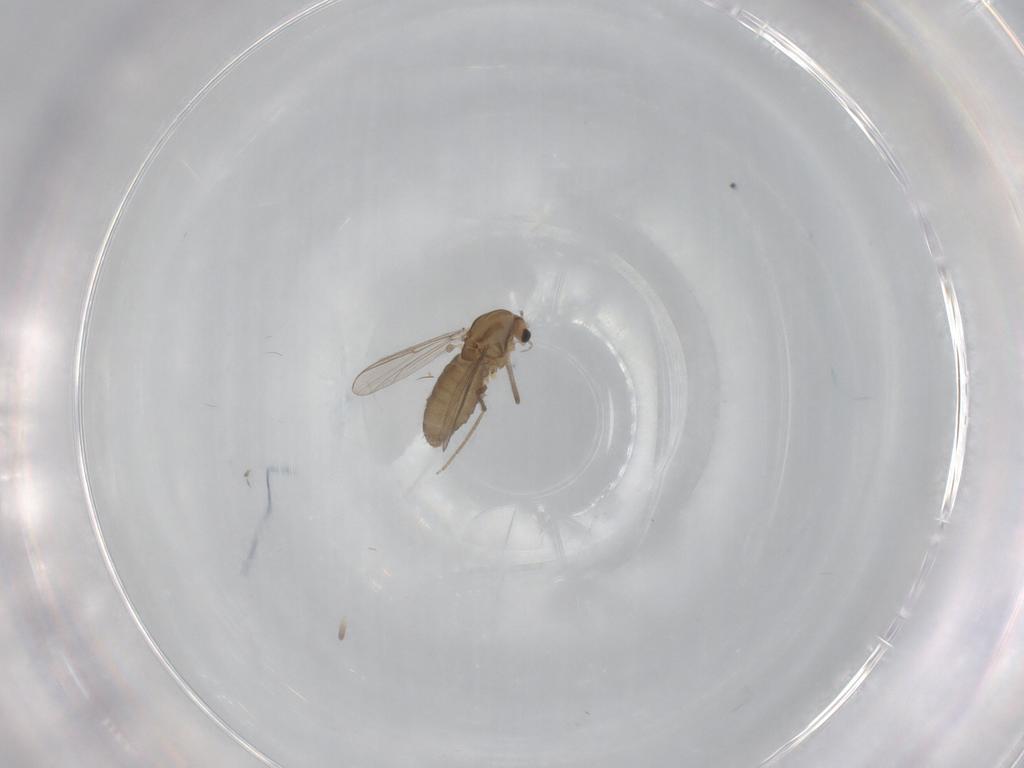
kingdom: Animalia
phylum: Arthropoda
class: Insecta
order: Diptera
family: Chironomidae
